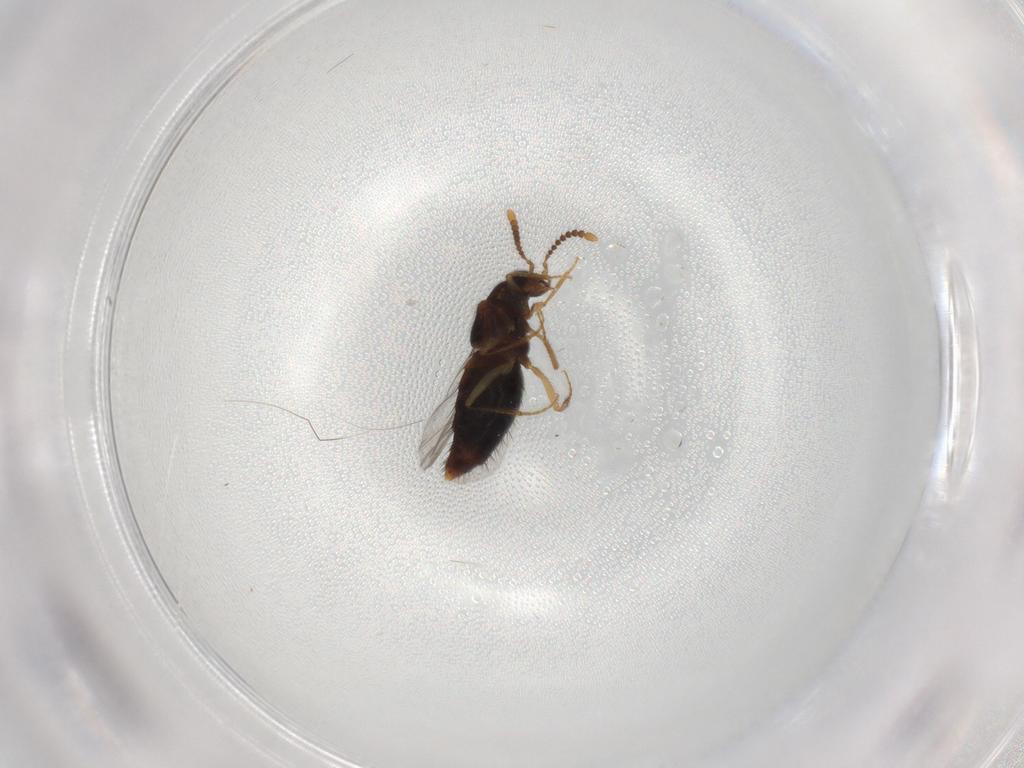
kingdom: Animalia
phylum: Arthropoda
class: Insecta
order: Coleoptera
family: Staphylinidae
